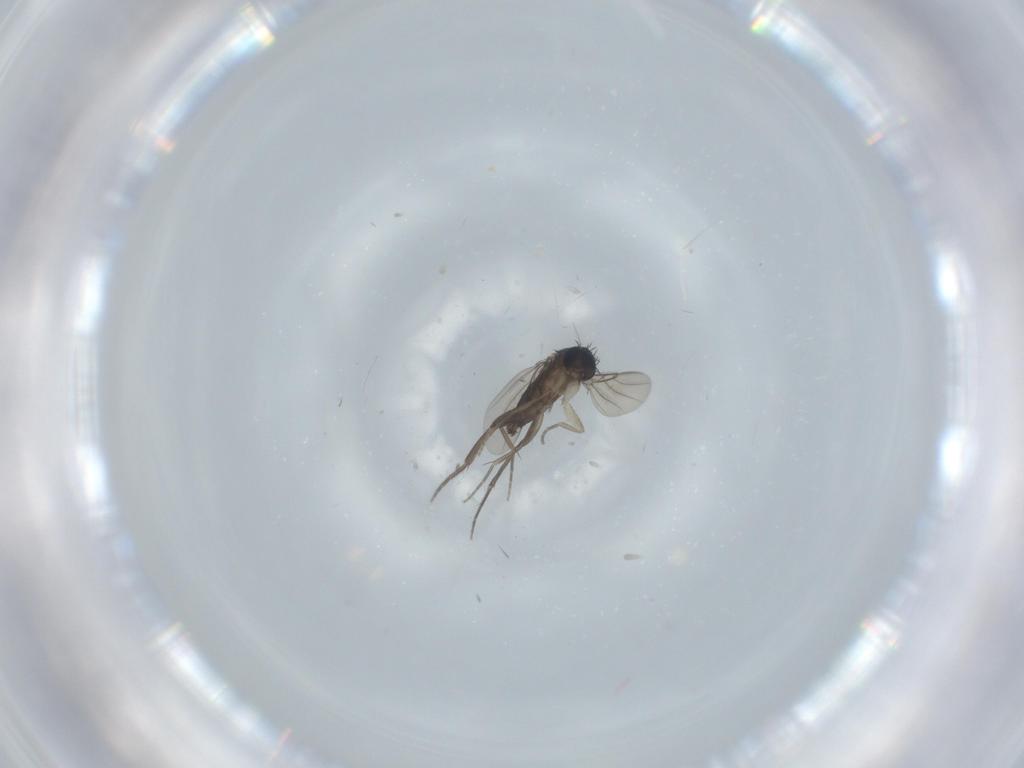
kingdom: Animalia
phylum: Arthropoda
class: Insecta
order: Diptera
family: Phoridae
